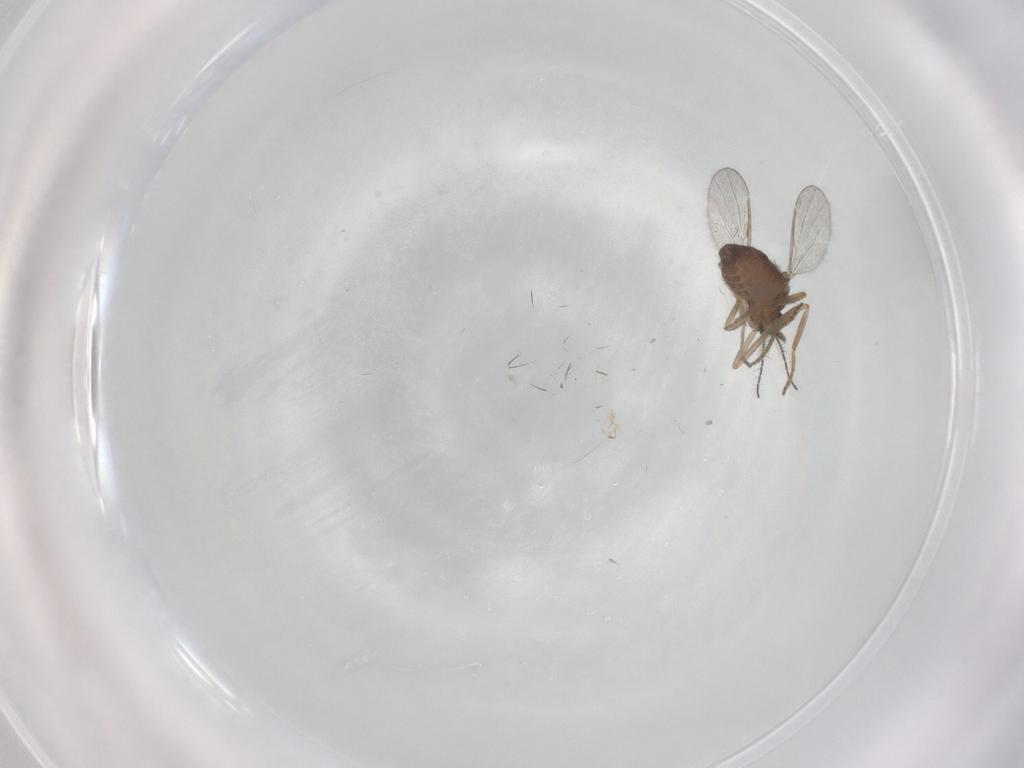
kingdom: Animalia
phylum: Arthropoda
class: Insecta
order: Diptera
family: Ceratopogonidae
